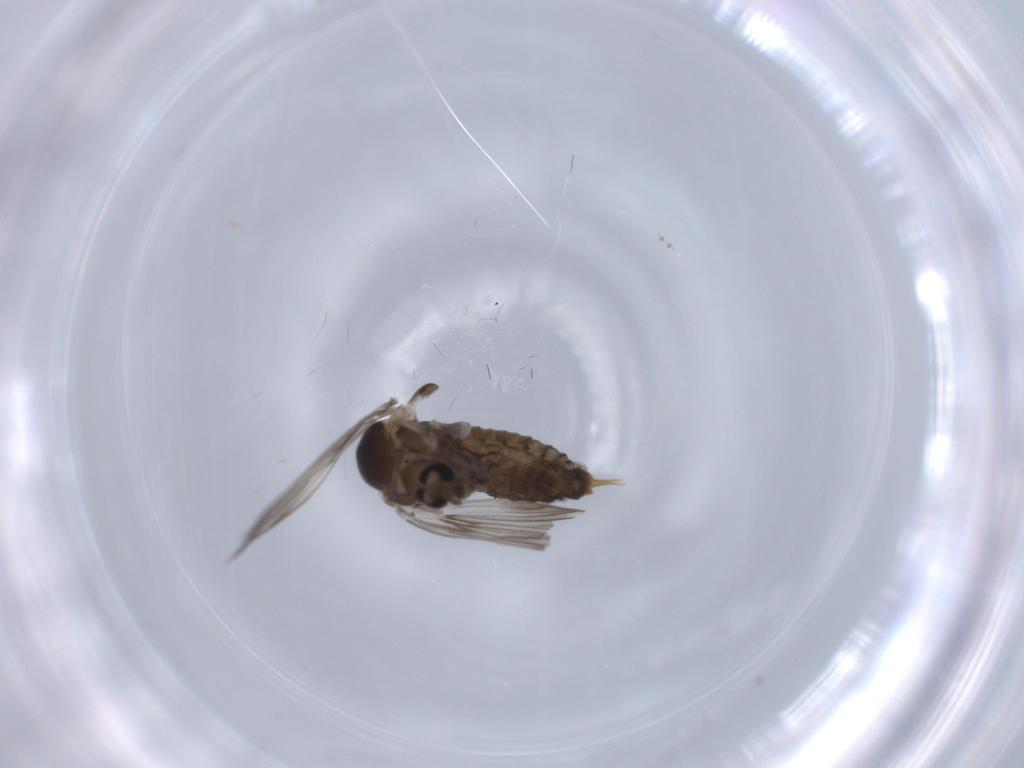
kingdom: Animalia
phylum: Arthropoda
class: Insecta
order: Diptera
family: Psychodidae
